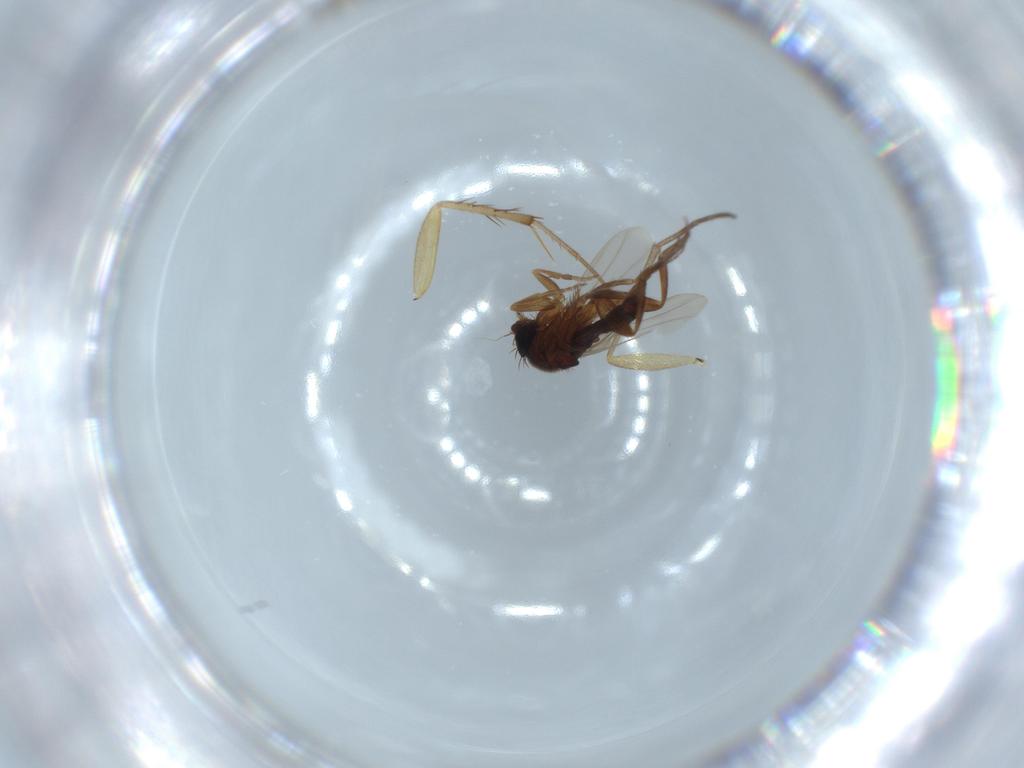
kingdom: Animalia
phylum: Arthropoda
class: Insecta
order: Diptera
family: Phoridae
